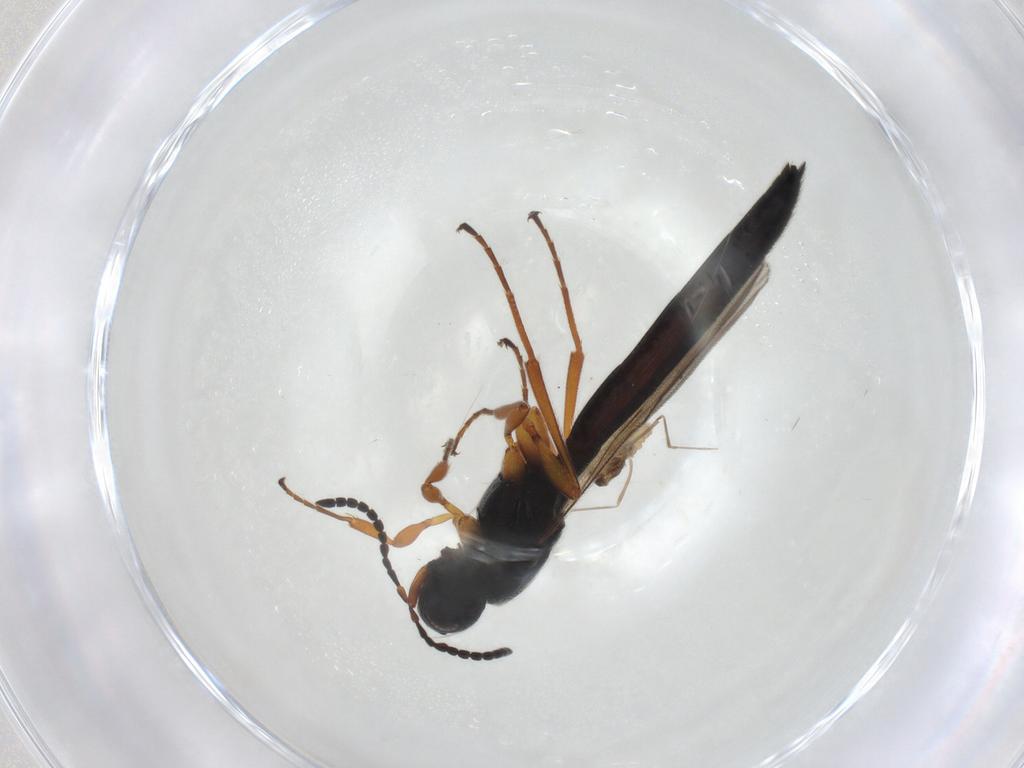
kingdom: Animalia
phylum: Arthropoda
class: Insecta
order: Hymenoptera
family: Scelionidae
